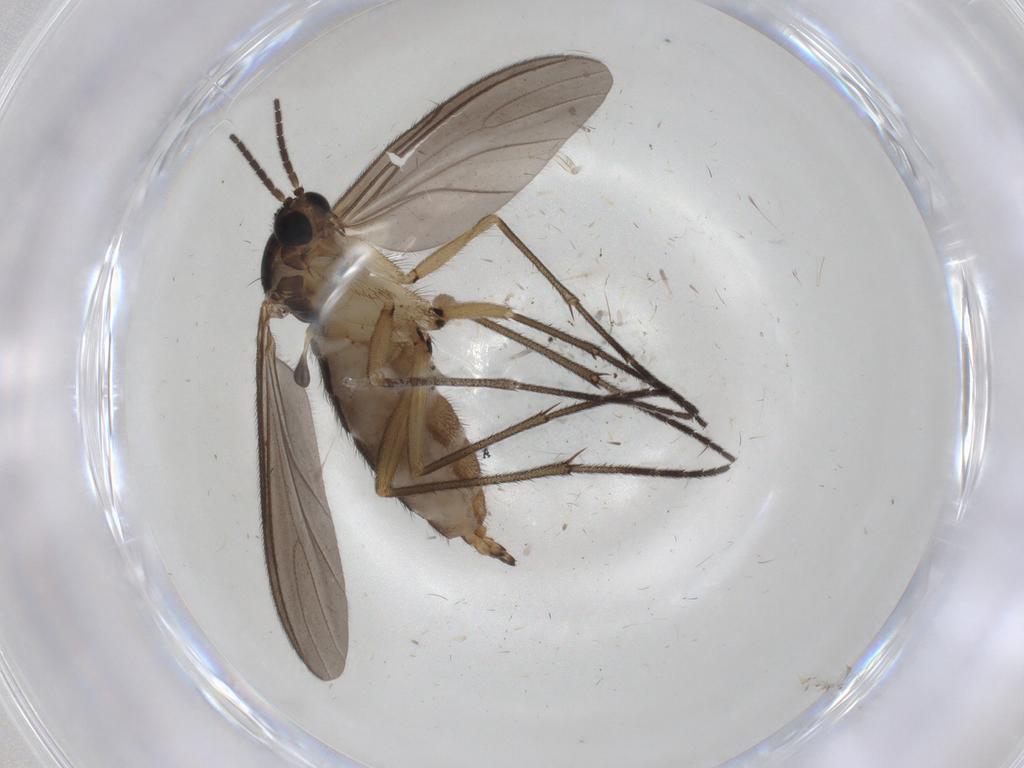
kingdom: Animalia
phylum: Arthropoda
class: Insecta
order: Diptera
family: Sciaridae
